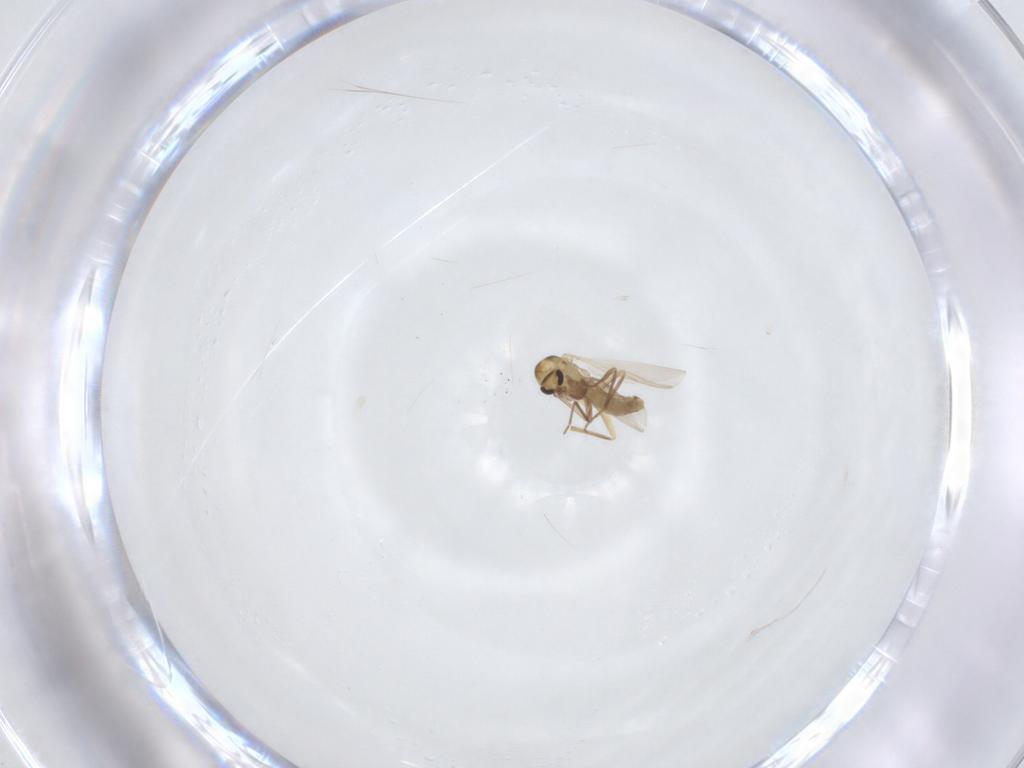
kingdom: Animalia
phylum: Arthropoda
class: Insecta
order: Diptera
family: Chironomidae
